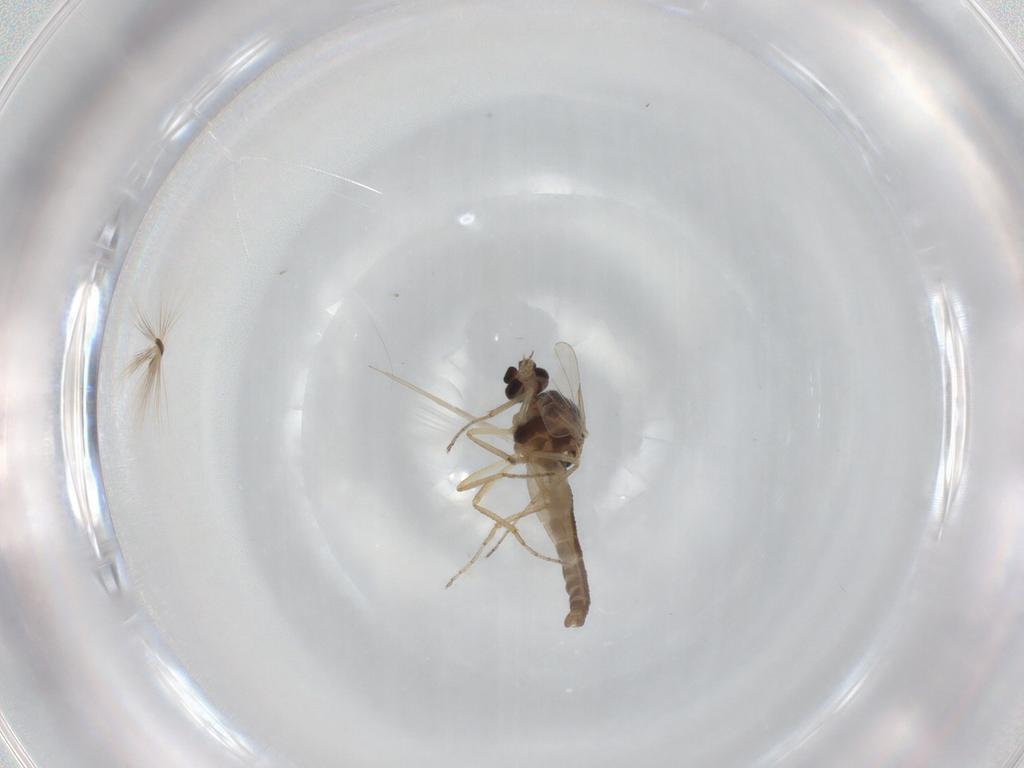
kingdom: Animalia
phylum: Arthropoda
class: Insecta
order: Diptera
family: Ceratopogonidae
